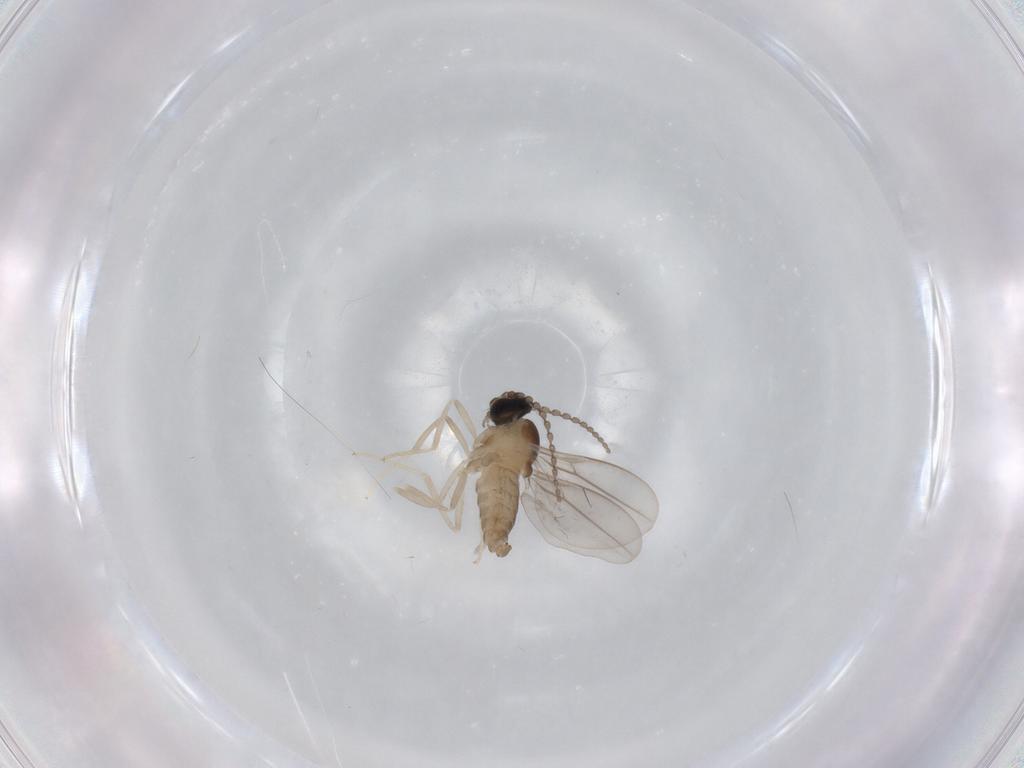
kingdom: Animalia
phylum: Arthropoda
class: Insecta
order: Diptera
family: Cecidomyiidae
